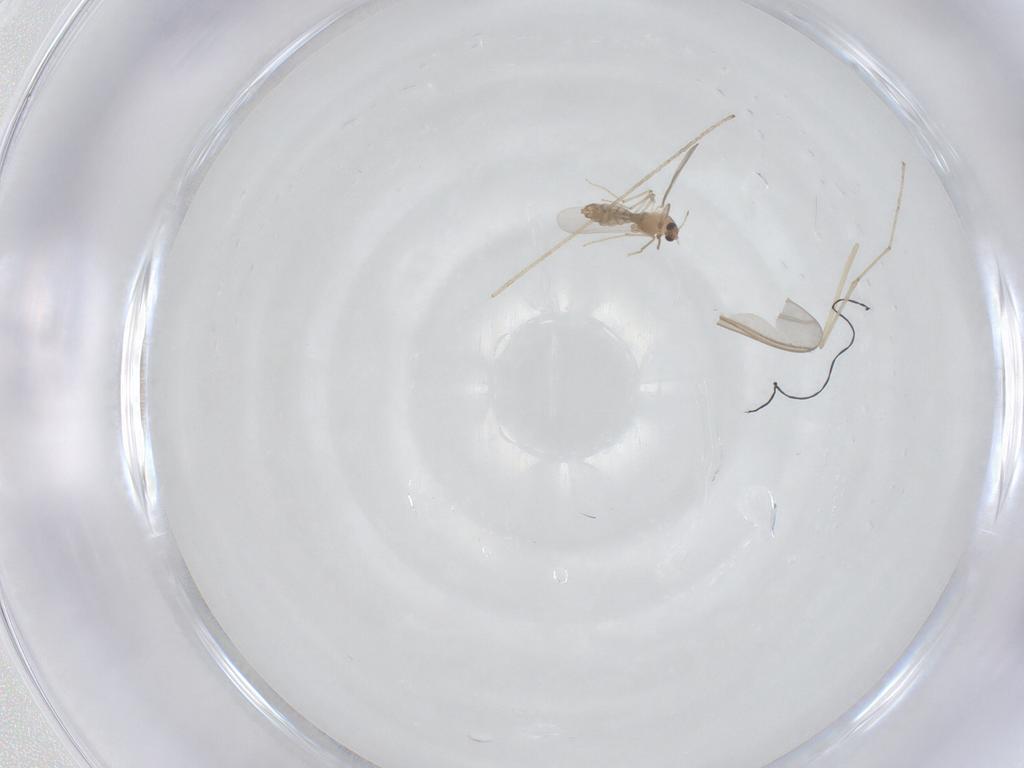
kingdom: Animalia
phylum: Arthropoda
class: Insecta
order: Diptera
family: Chironomidae
